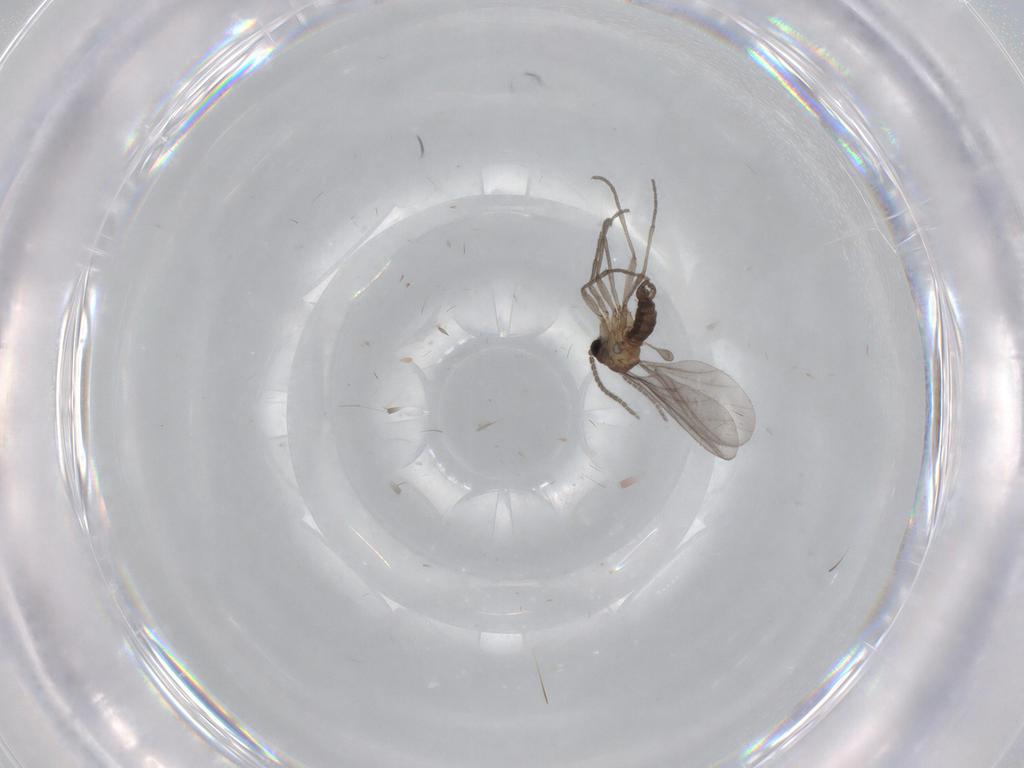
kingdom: Animalia
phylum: Arthropoda
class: Insecta
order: Diptera
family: Sciaridae
